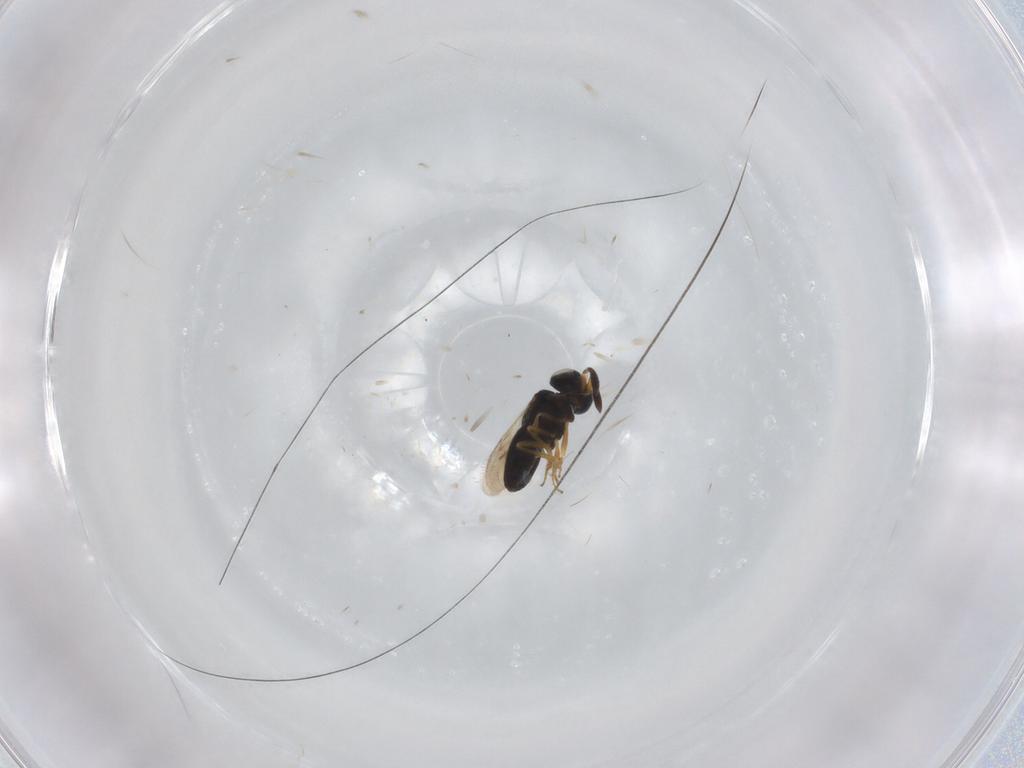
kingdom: Animalia
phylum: Arthropoda
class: Insecta
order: Hymenoptera
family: Scelionidae
